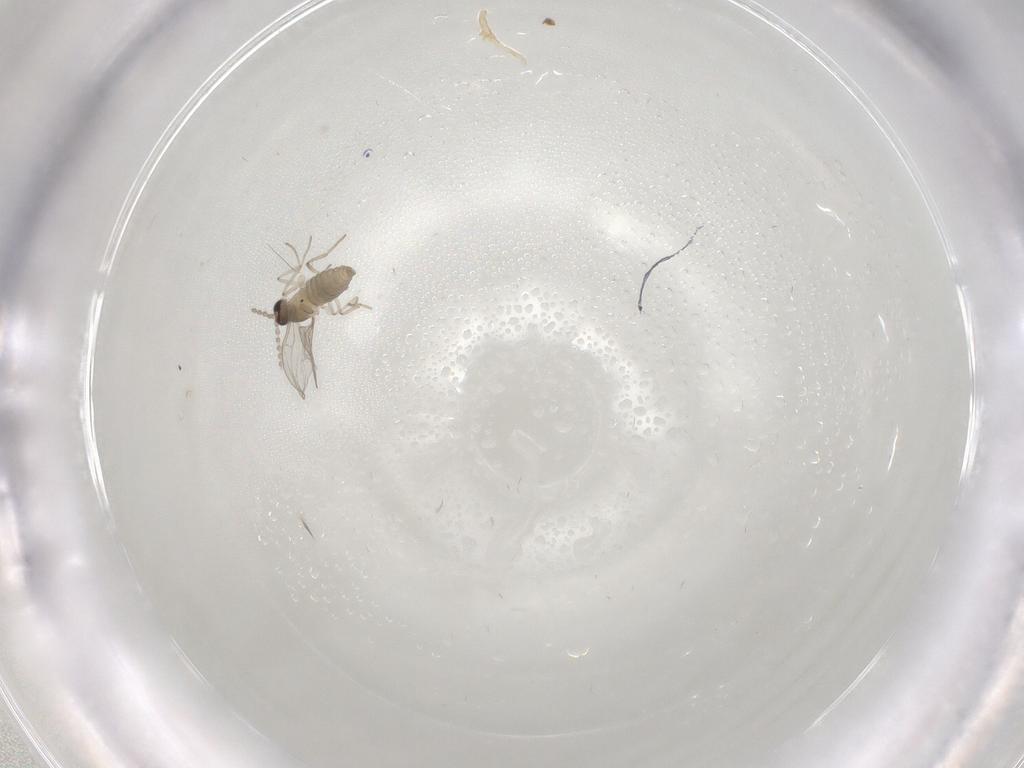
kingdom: Animalia
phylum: Arthropoda
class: Insecta
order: Diptera
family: Cecidomyiidae
